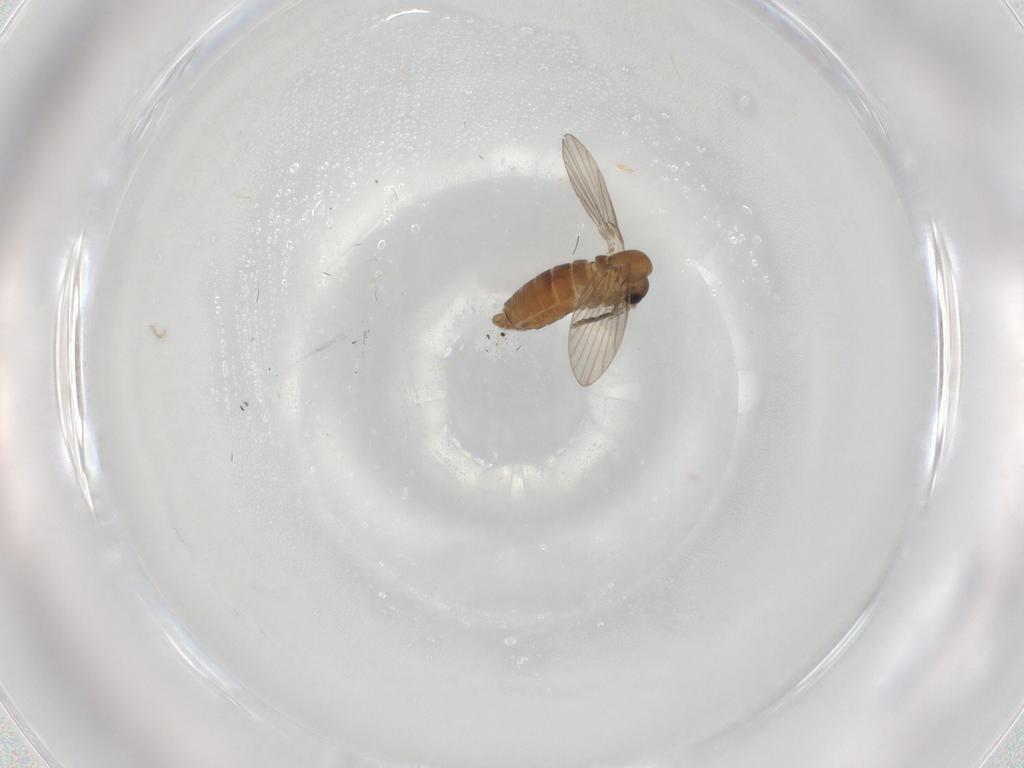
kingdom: Animalia
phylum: Arthropoda
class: Insecta
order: Diptera
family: Psychodidae
